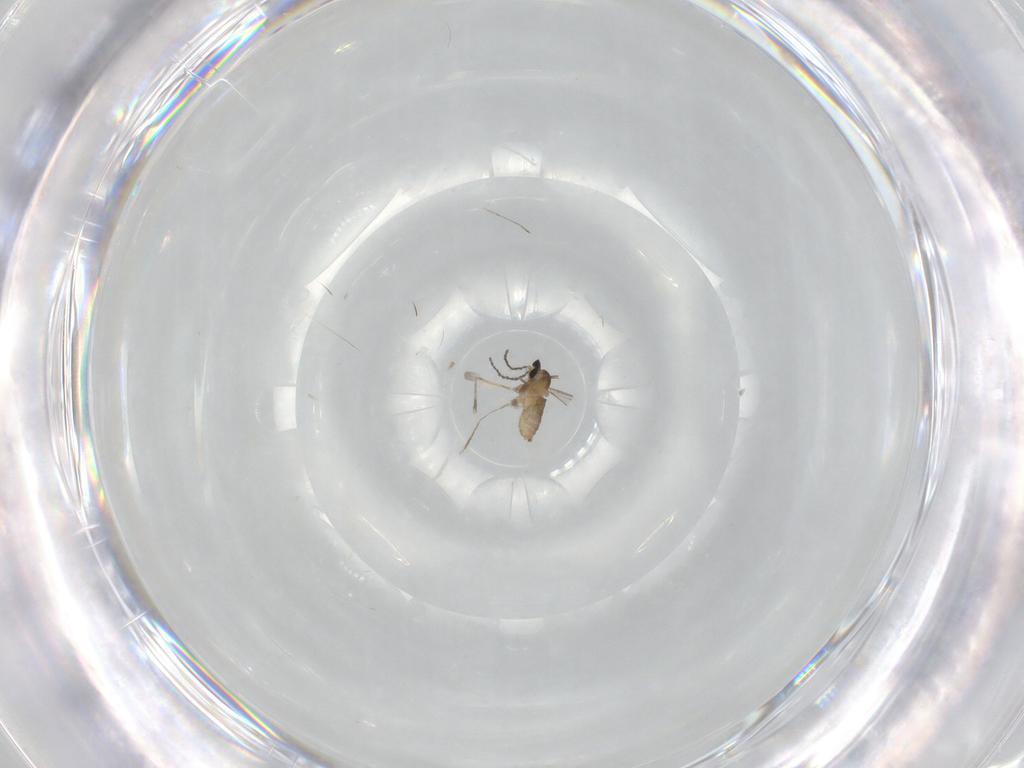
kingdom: Animalia
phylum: Arthropoda
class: Insecta
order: Diptera
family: Cecidomyiidae
